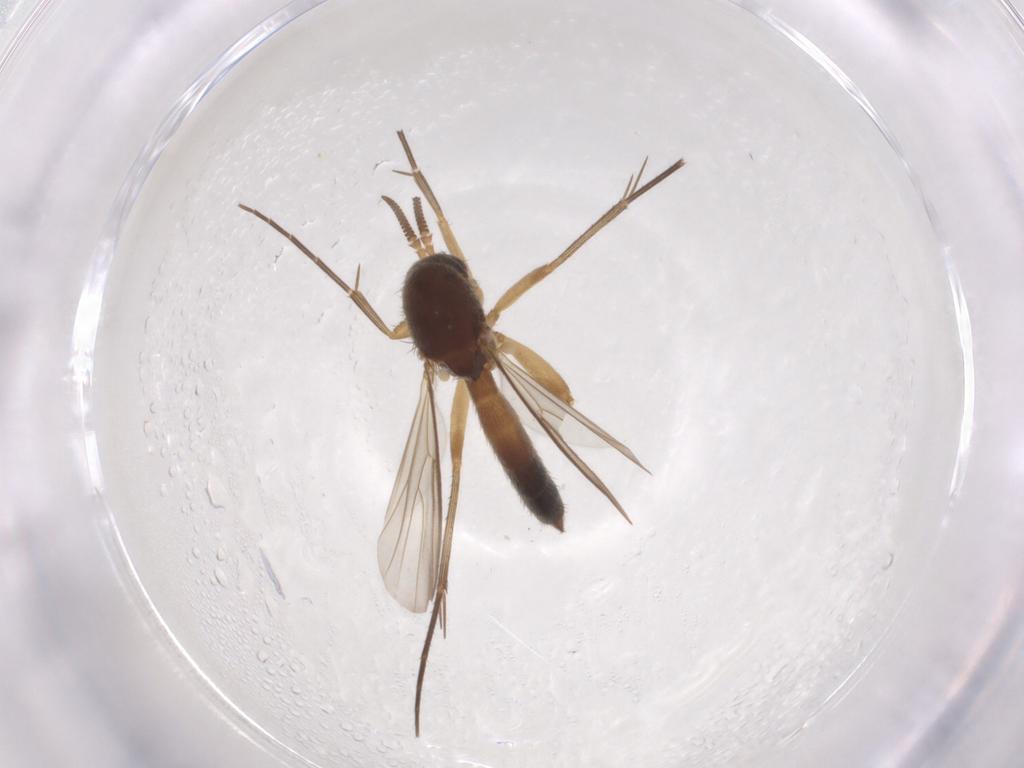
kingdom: Animalia
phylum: Arthropoda
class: Insecta
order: Diptera
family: Mycetophilidae
